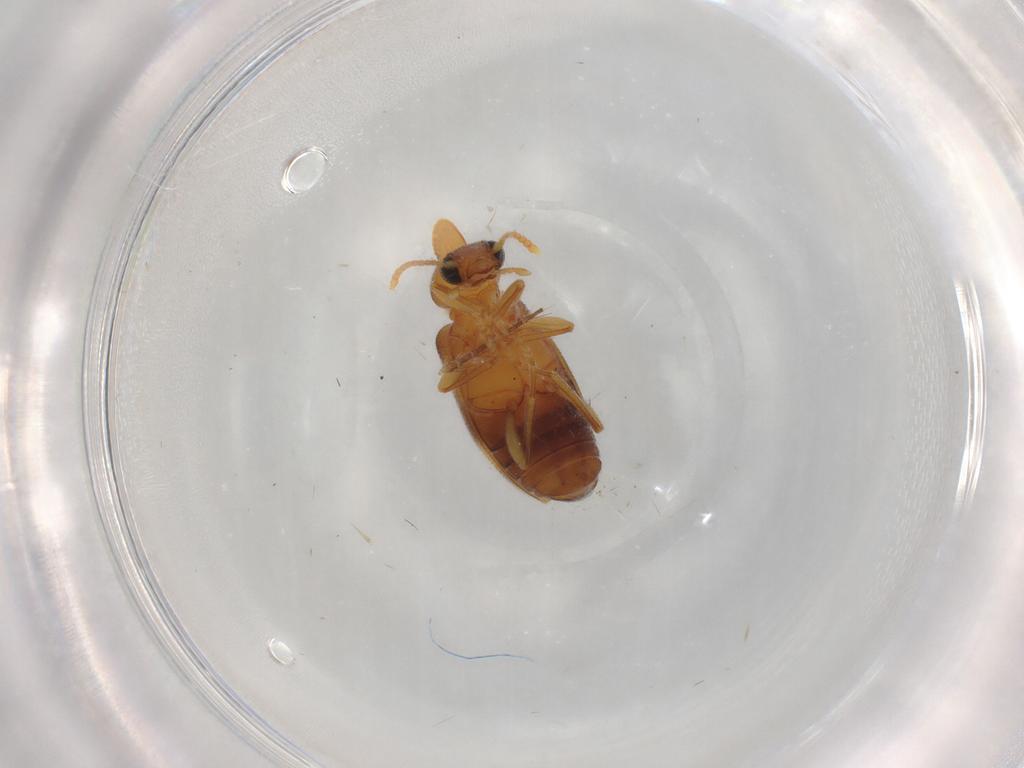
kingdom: Animalia
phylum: Arthropoda
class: Insecta
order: Coleoptera
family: Anthicidae
